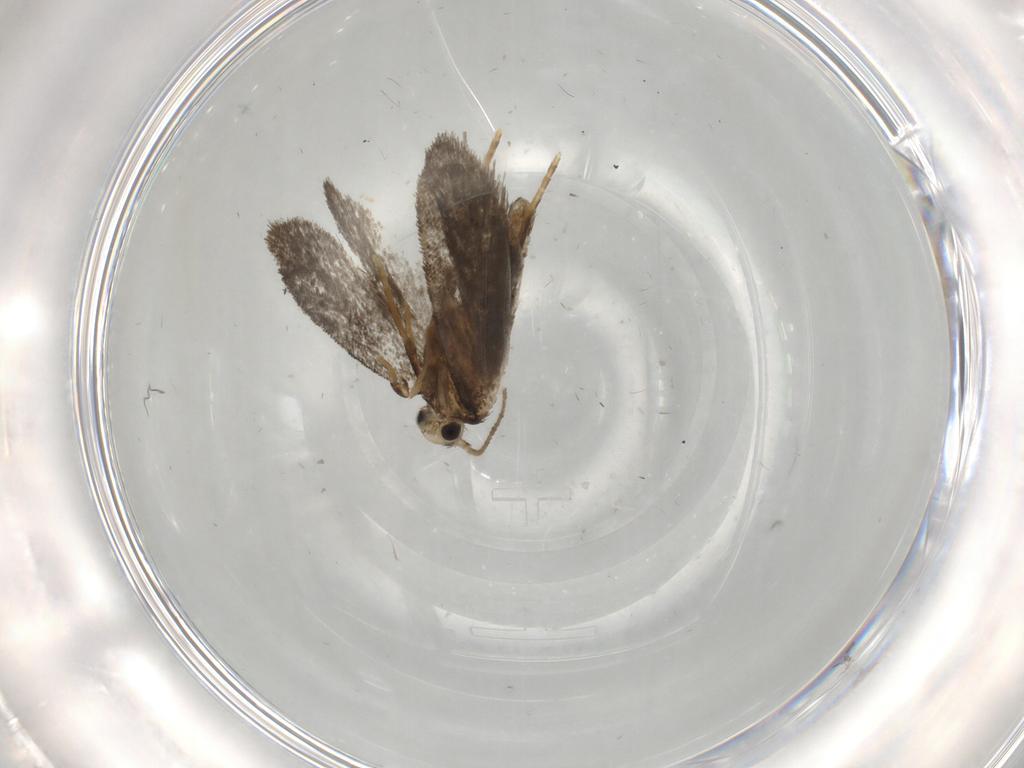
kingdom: Animalia
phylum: Arthropoda
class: Insecta
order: Lepidoptera
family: Psychidae
